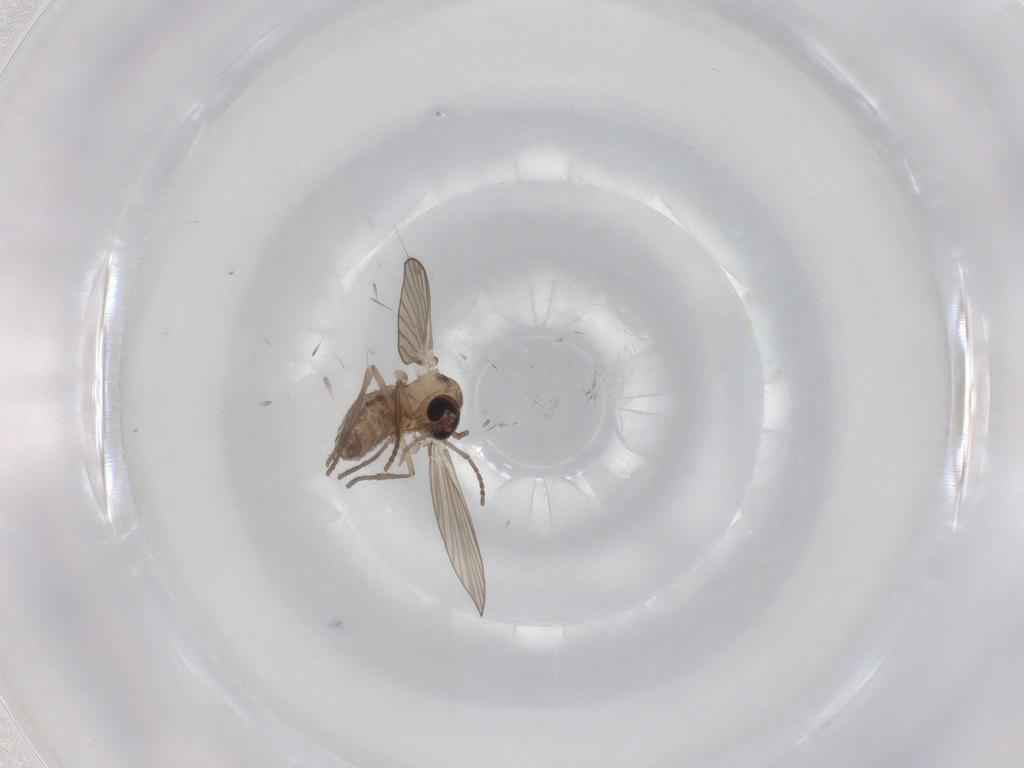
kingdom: Animalia
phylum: Arthropoda
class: Insecta
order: Diptera
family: Psychodidae
